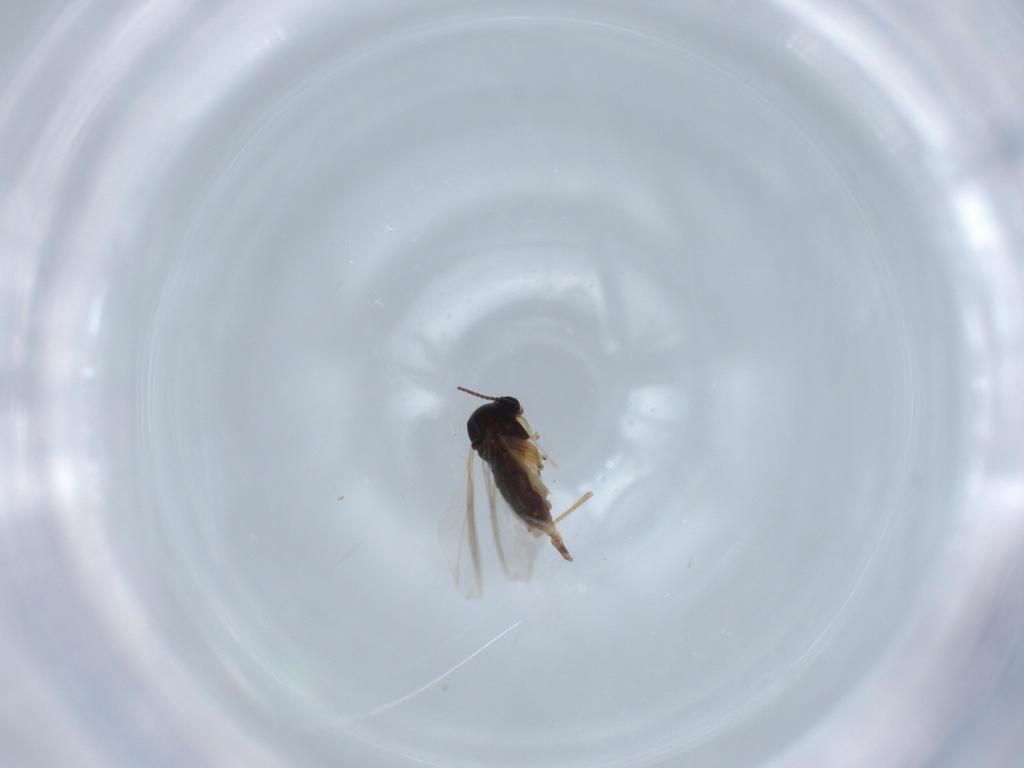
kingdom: Animalia
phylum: Arthropoda
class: Insecta
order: Diptera
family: Sciaridae
